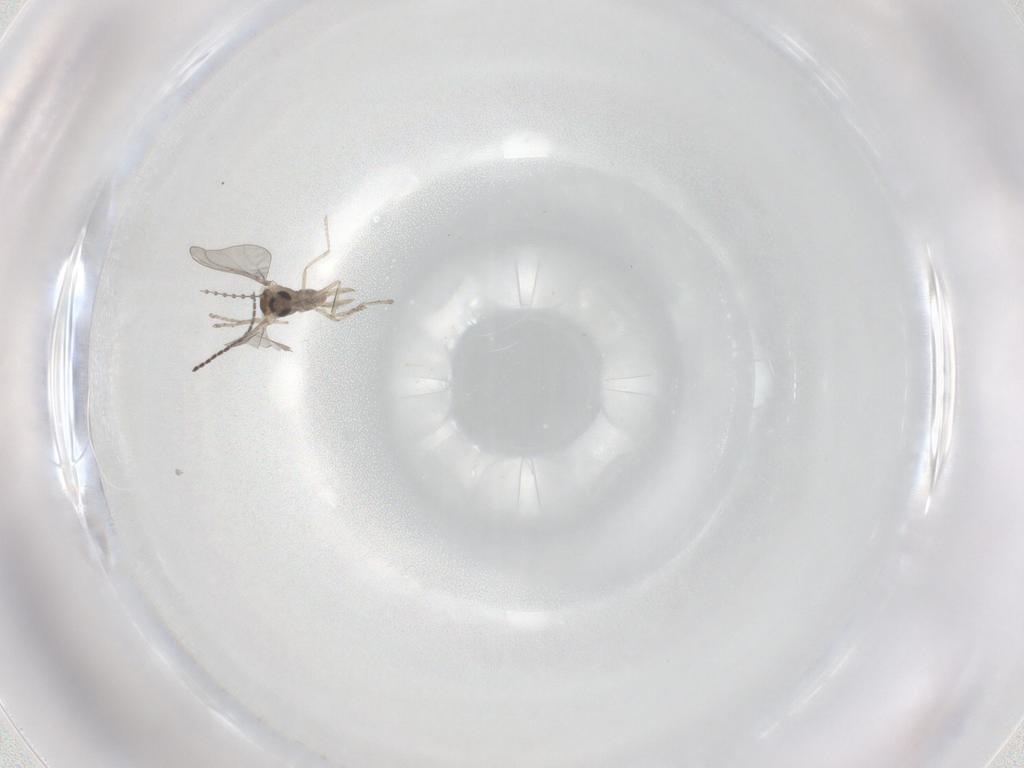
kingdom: Animalia
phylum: Arthropoda
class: Insecta
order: Diptera
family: Cecidomyiidae
